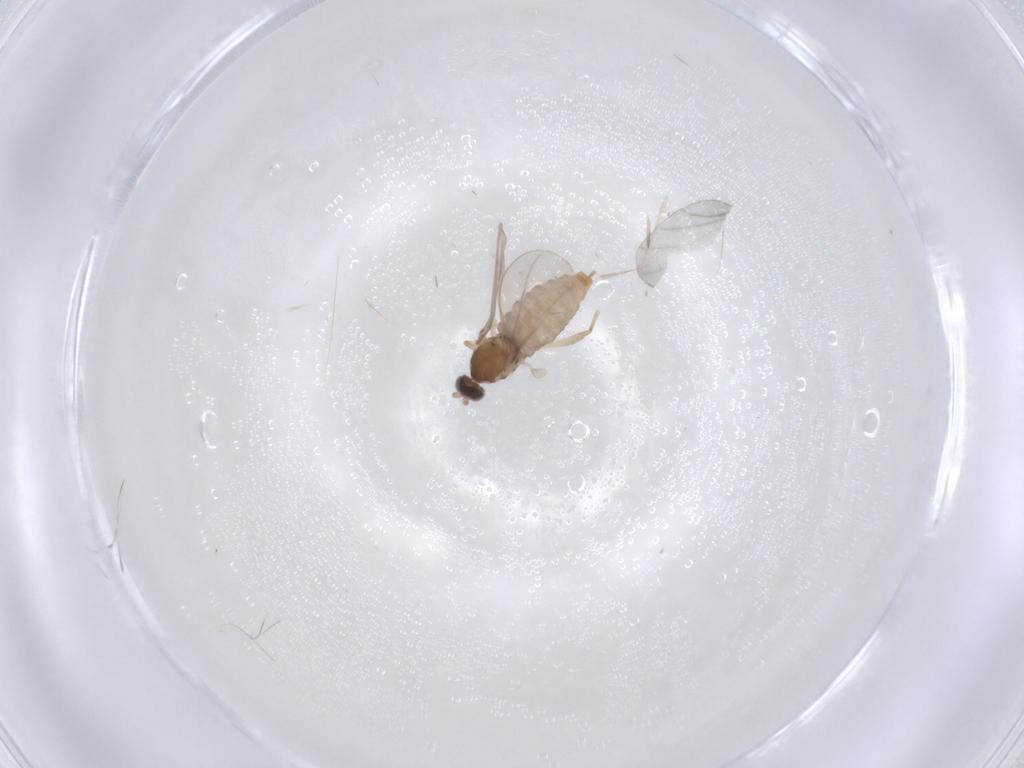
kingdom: Animalia
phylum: Arthropoda
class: Insecta
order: Diptera
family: Cecidomyiidae
